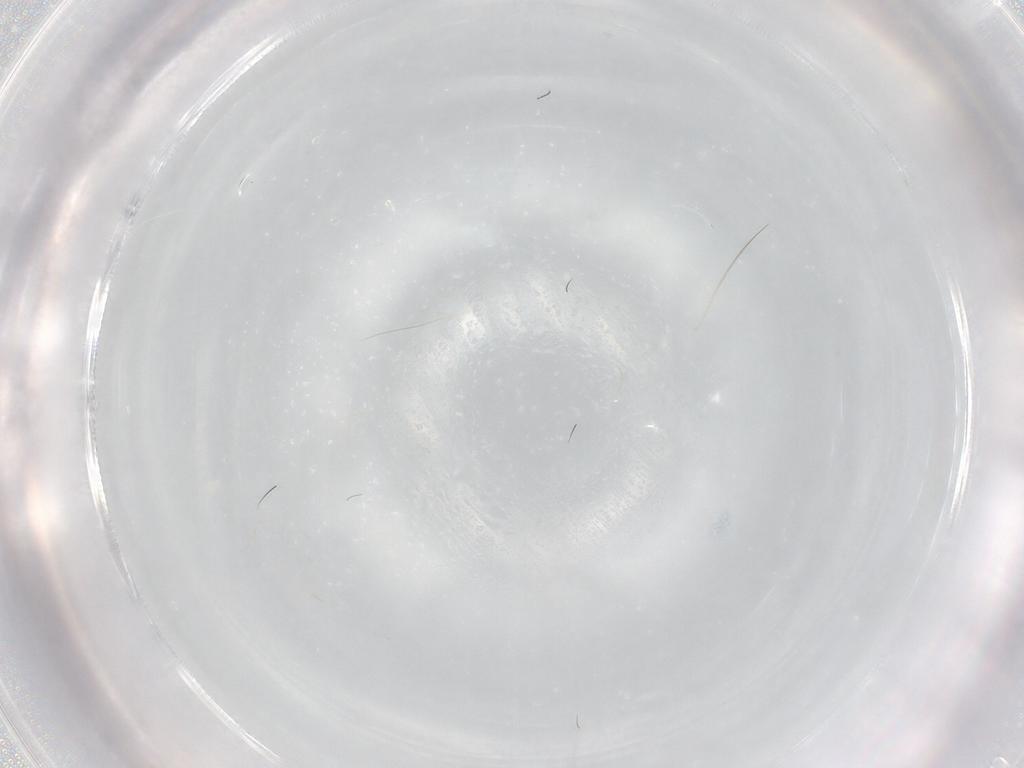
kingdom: Animalia
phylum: Arthropoda
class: Insecta
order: Hymenoptera
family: Ichneumonidae
